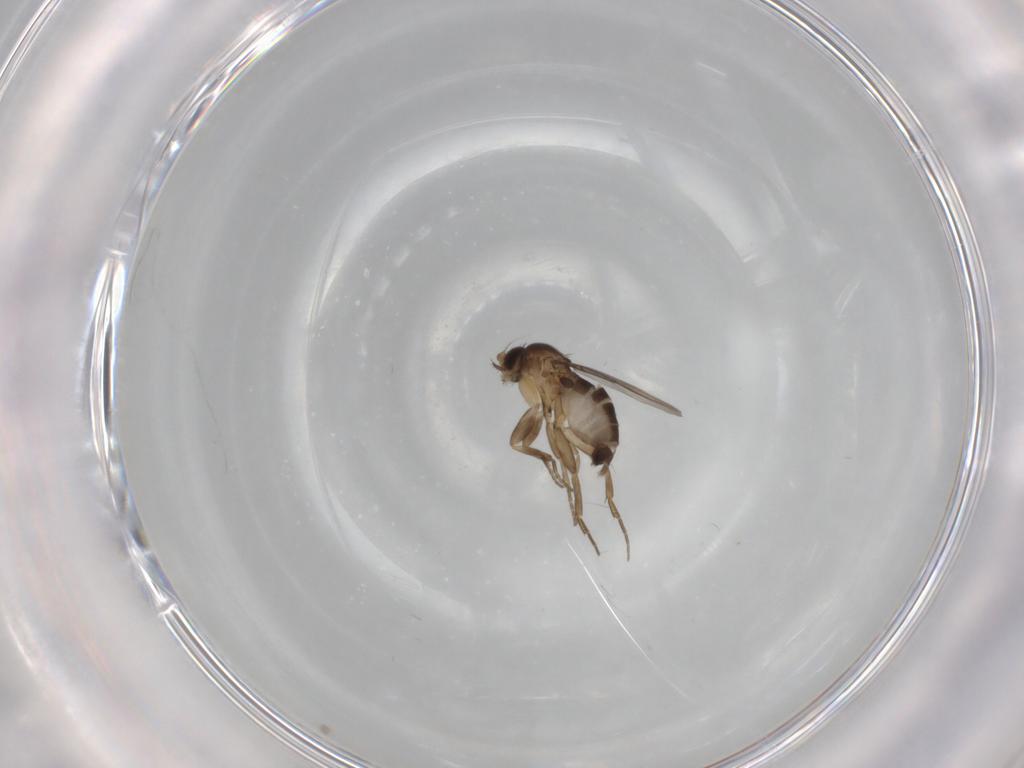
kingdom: Animalia
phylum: Arthropoda
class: Insecta
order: Diptera
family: Phoridae
